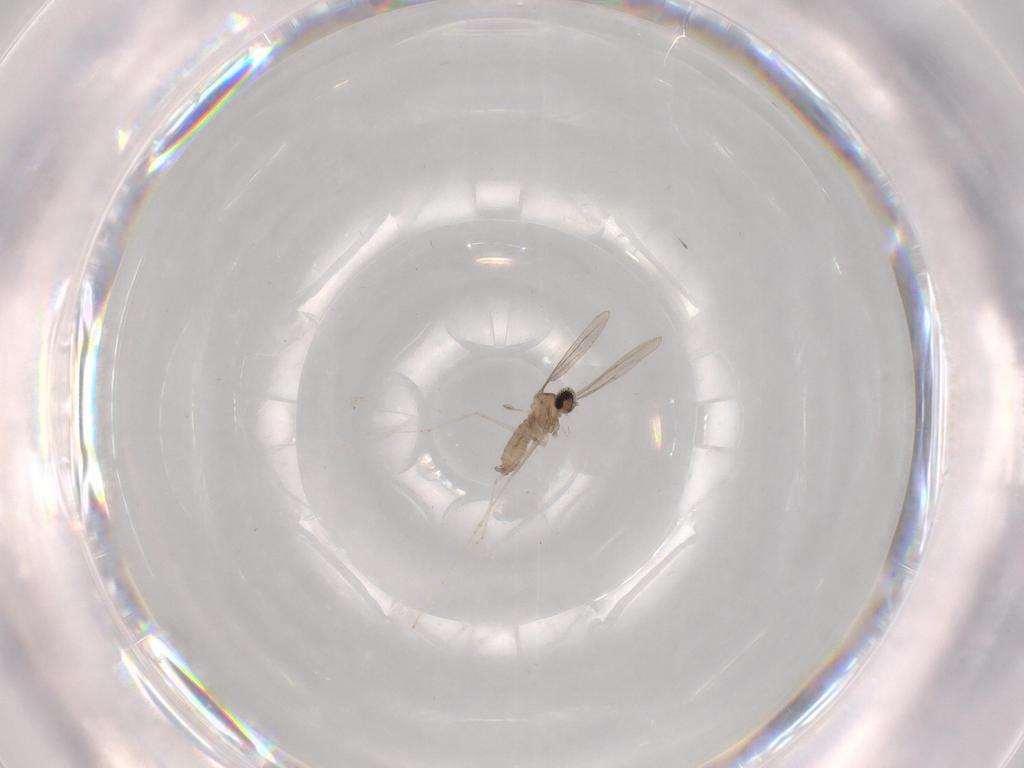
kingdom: Animalia
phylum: Arthropoda
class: Insecta
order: Diptera
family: Cecidomyiidae
